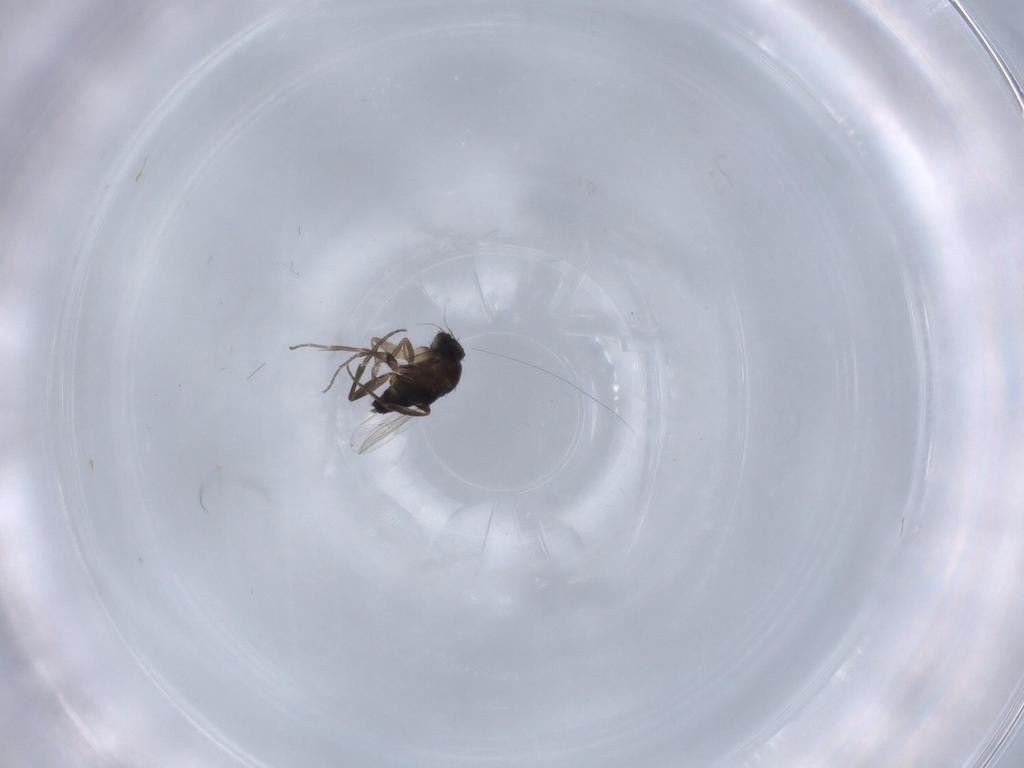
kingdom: Animalia
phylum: Arthropoda
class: Insecta
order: Diptera
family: Phoridae
